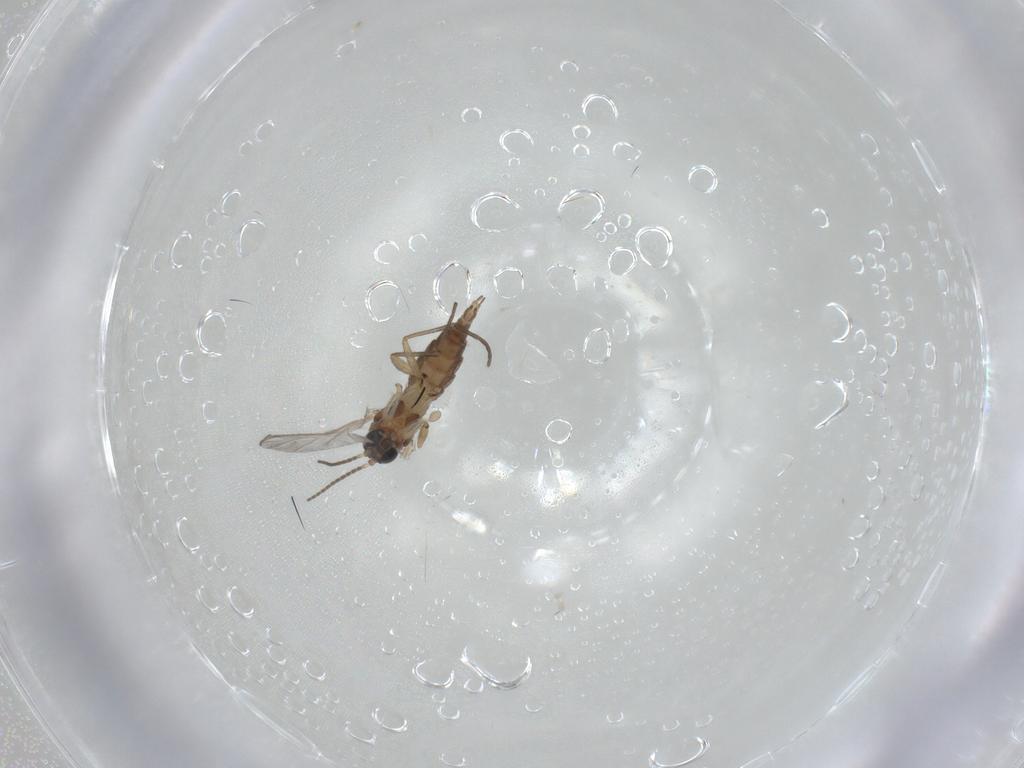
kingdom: Animalia
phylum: Arthropoda
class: Insecta
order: Diptera
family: Sciaridae
